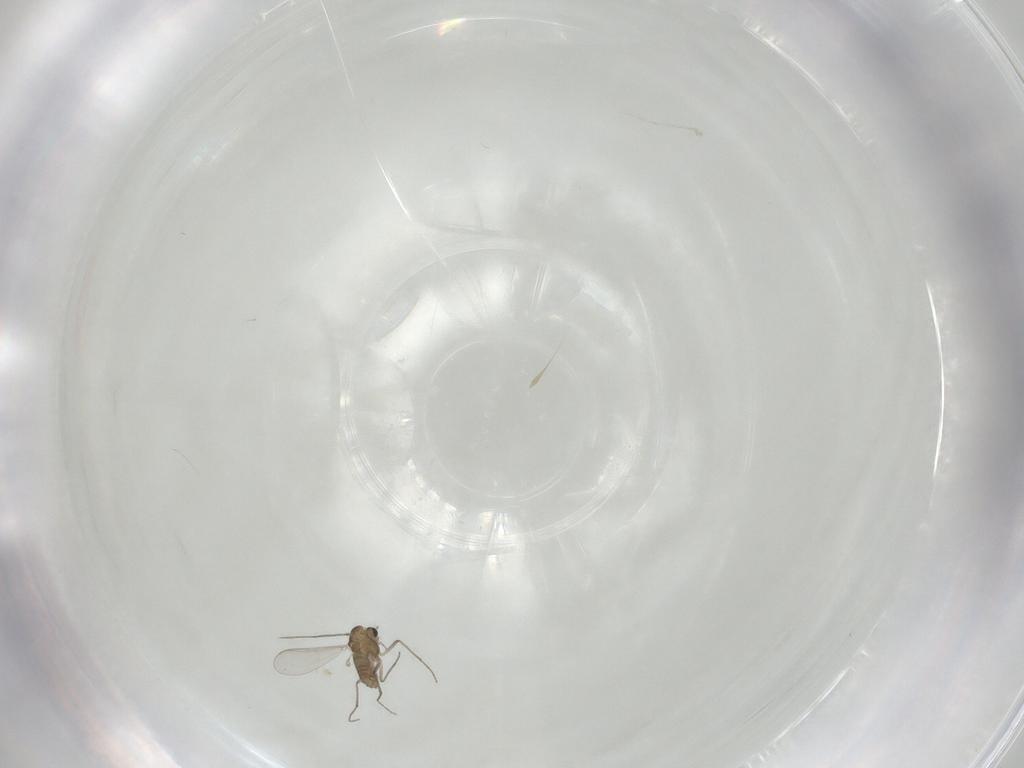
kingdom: Animalia
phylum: Arthropoda
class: Insecta
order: Diptera
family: Chironomidae
